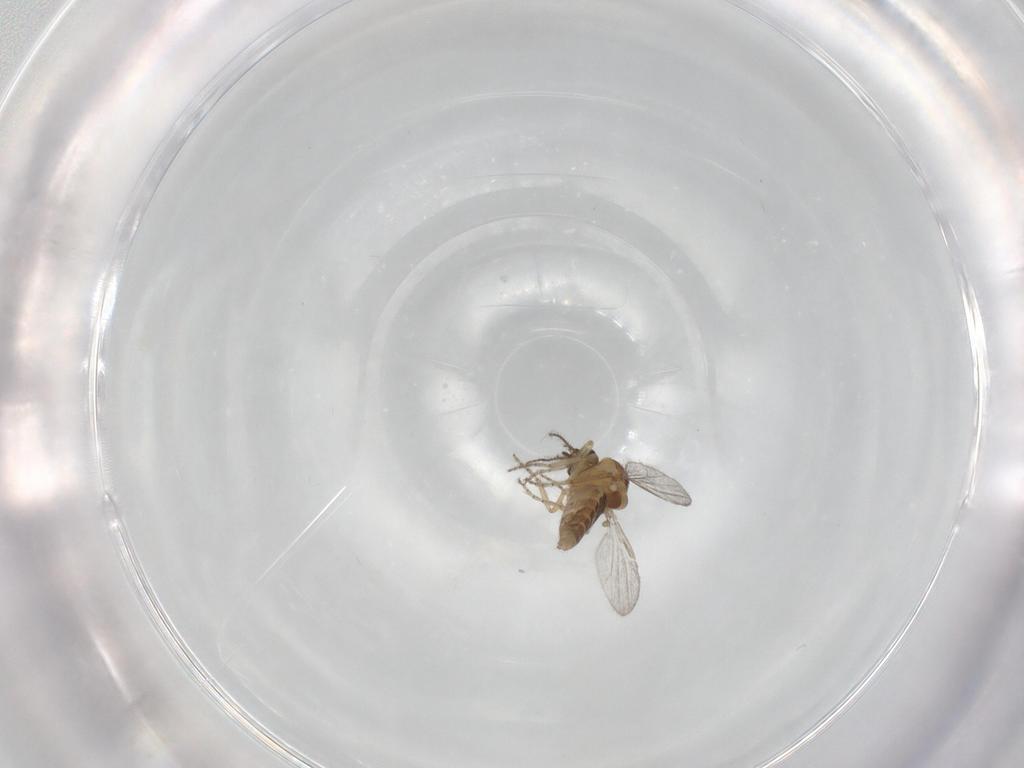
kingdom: Animalia
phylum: Arthropoda
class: Insecta
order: Diptera
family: Ceratopogonidae
